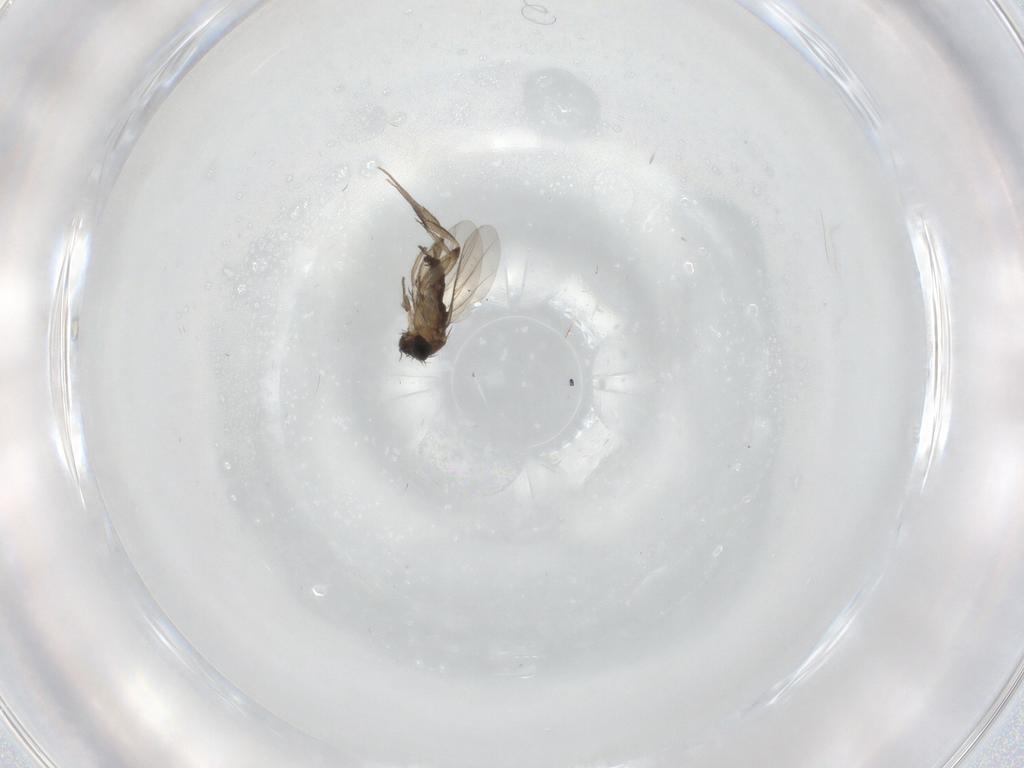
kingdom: Animalia
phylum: Arthropoda
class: Insecta
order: Diptera
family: Phoridae
